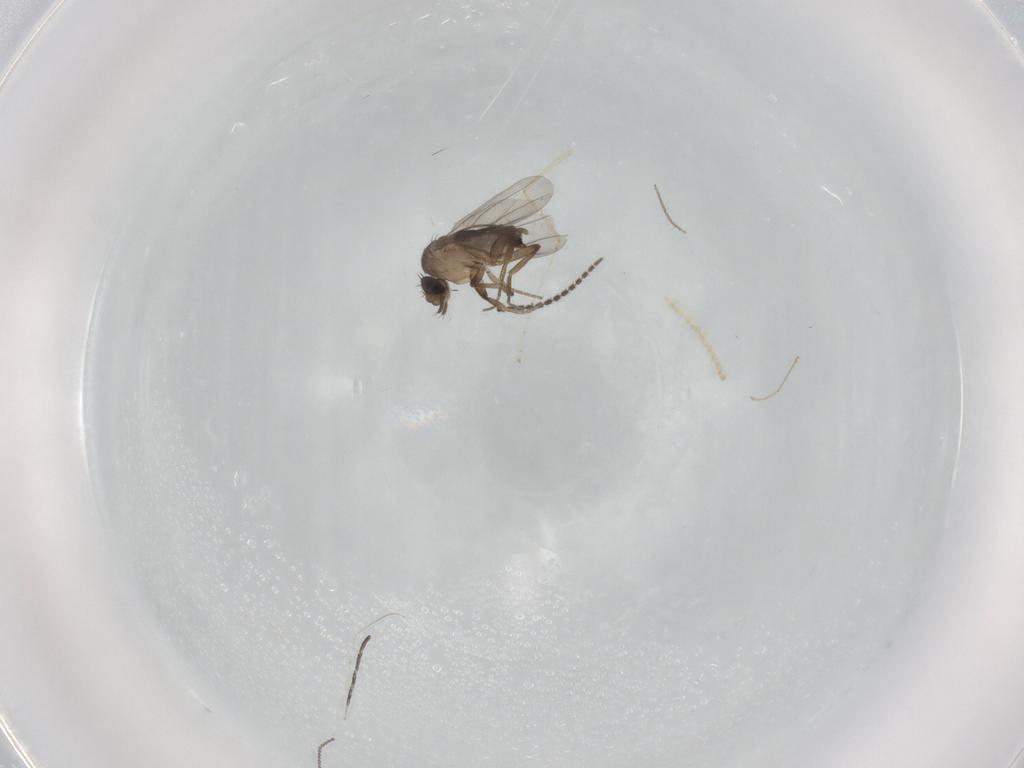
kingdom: Animalia
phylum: Arthropoda
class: Insecta
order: Diptera
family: Cecidomyiidae
